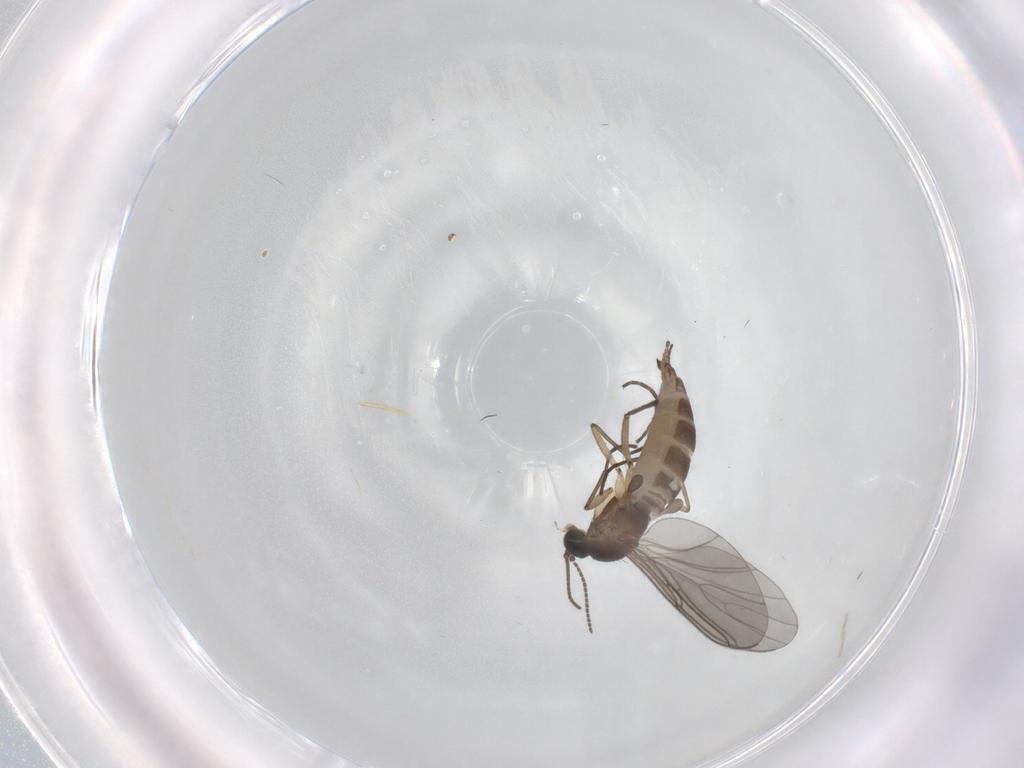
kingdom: Animalia
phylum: Arthropoda
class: Insecta
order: Diptera
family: Sciaridae
